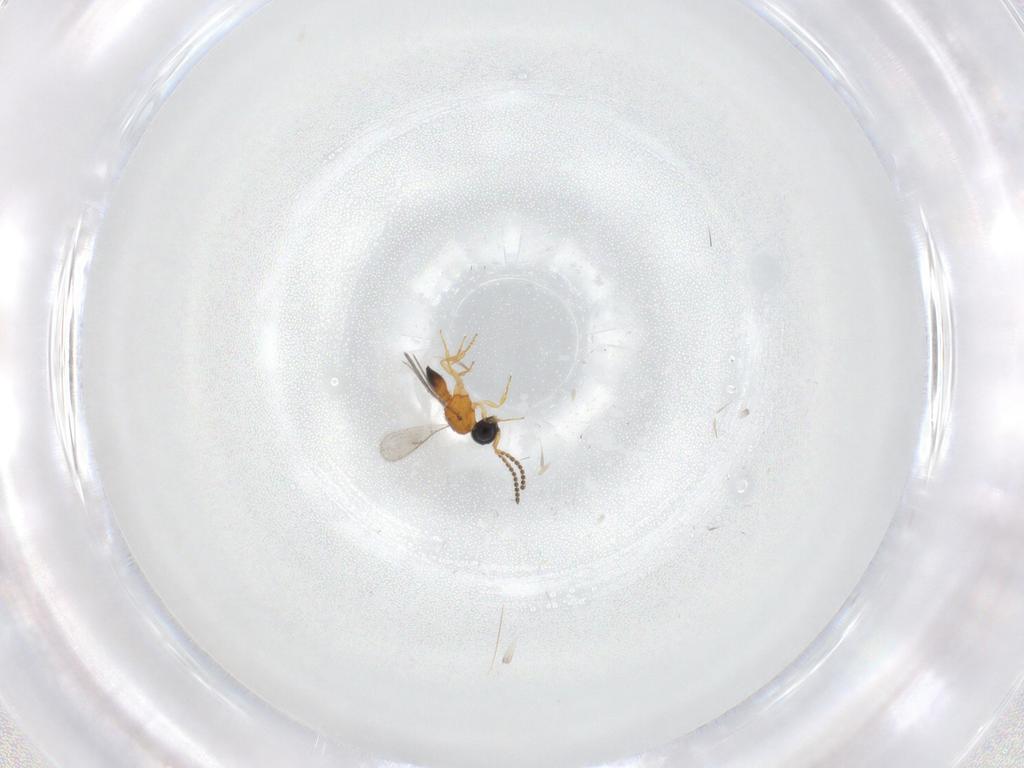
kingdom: Animalia
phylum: Arthropoda
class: Insecta
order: Hymenoptera
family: Scelionidae
